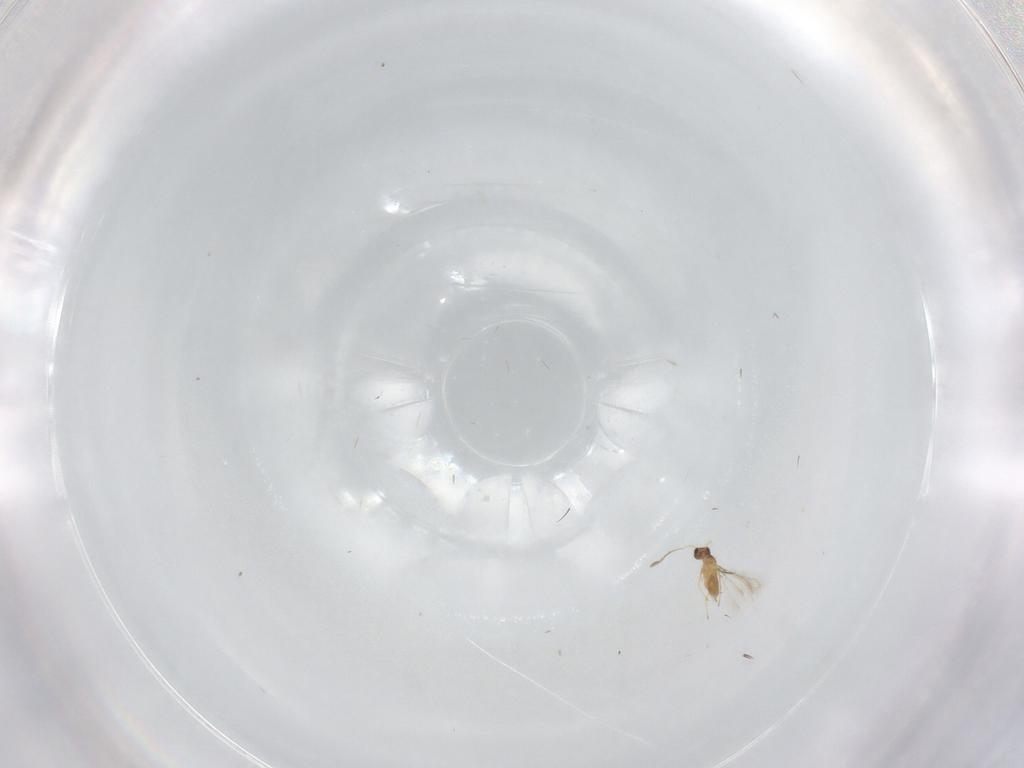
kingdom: Animalia
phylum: Arthropoda
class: Insecta
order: Hymenoptera
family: Mymaridae
